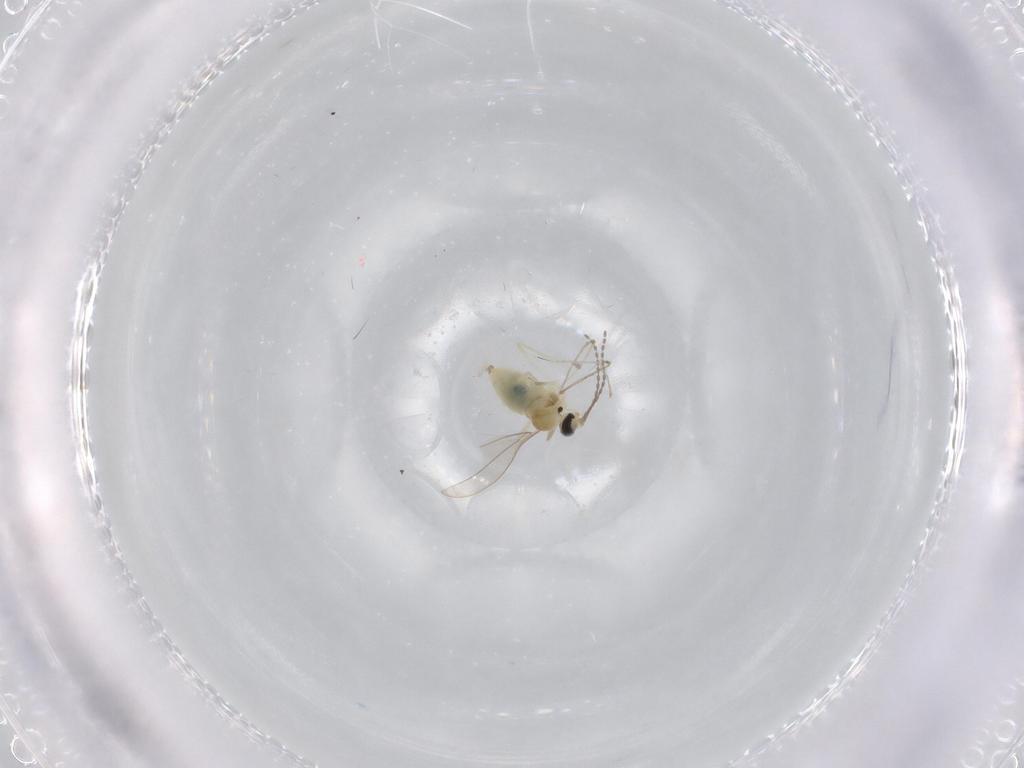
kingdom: Animalia
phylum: Arthropoda
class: Insecta
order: Diptera
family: Cecidomyiidae
